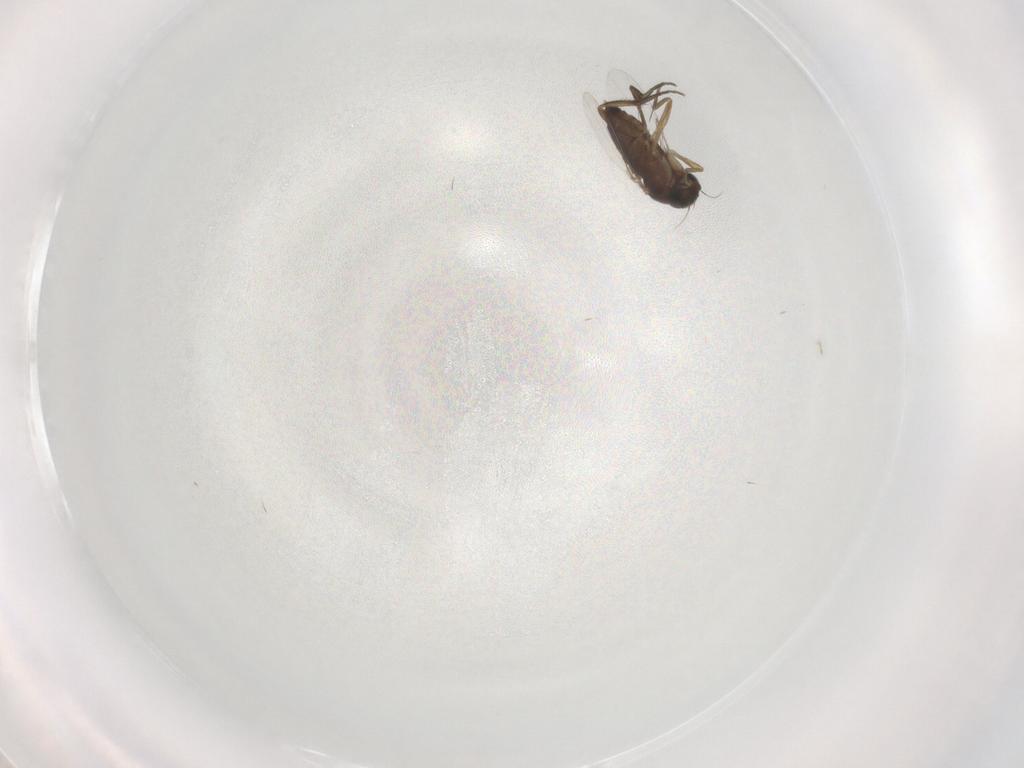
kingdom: Animalia
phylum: Arthropoda
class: Insecta
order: Diptera
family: Phoridae
